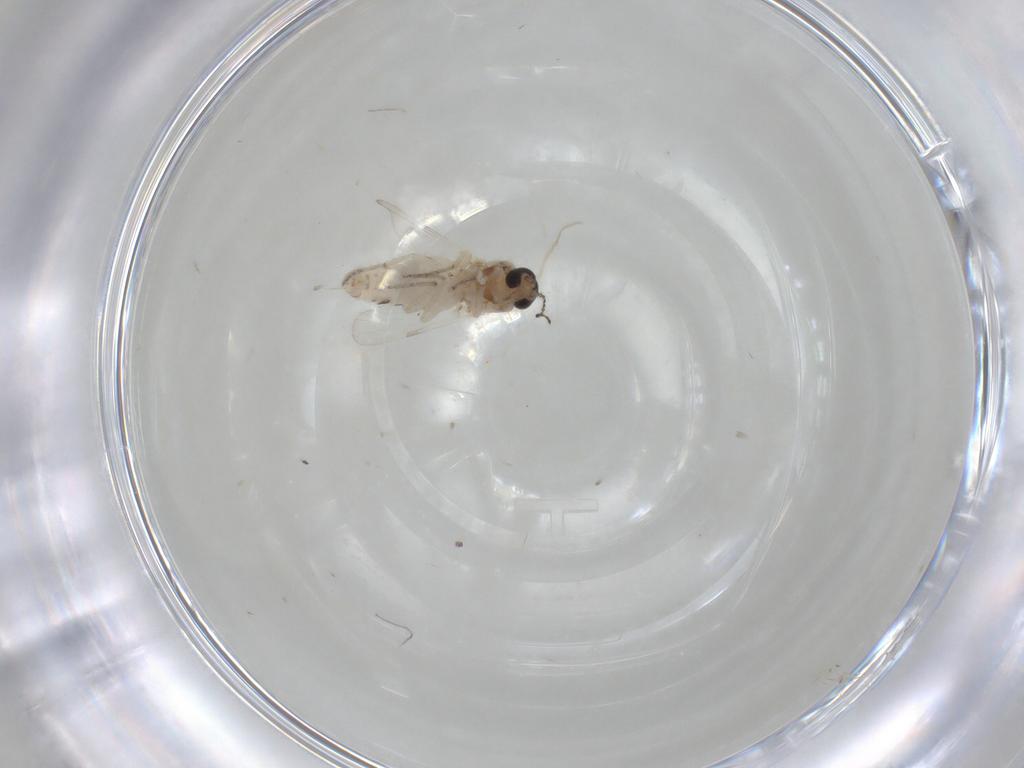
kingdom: Animalia
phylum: Arthropoda
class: Insecta
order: Diptera
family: Ceratopogonidae
